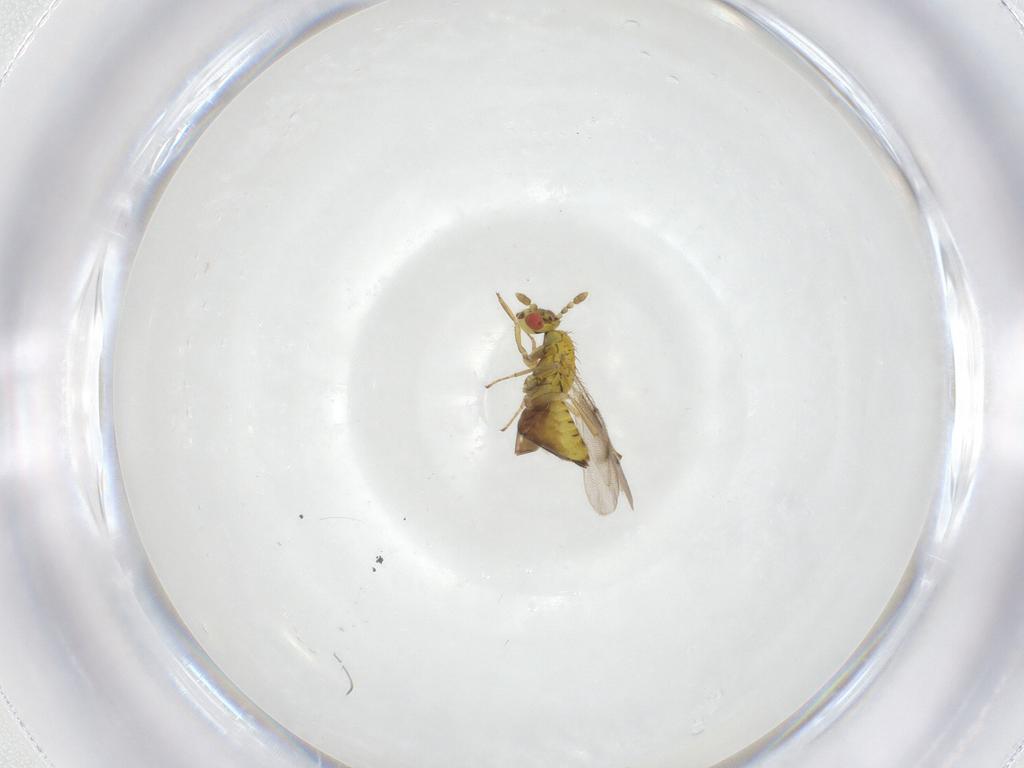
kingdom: Animalia
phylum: Arthropoda
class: Insecta
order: Hymenoptera
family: Eulophidae
